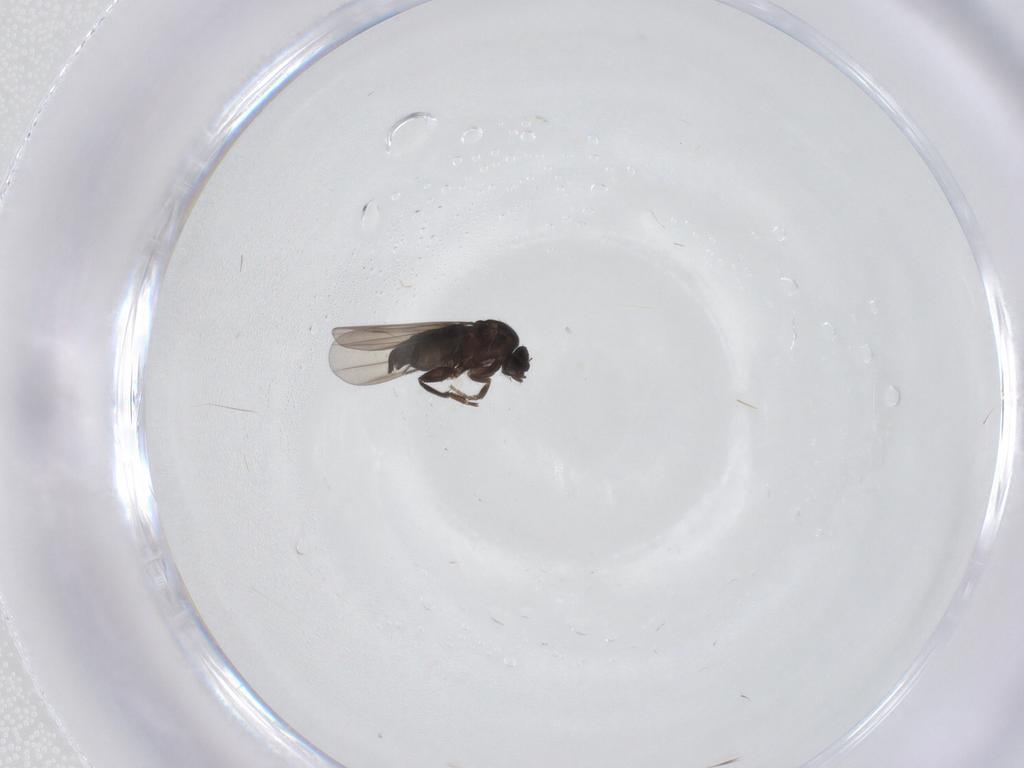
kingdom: Animalia
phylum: Arthropoda
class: Insecta
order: Diptera
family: Phoridae
